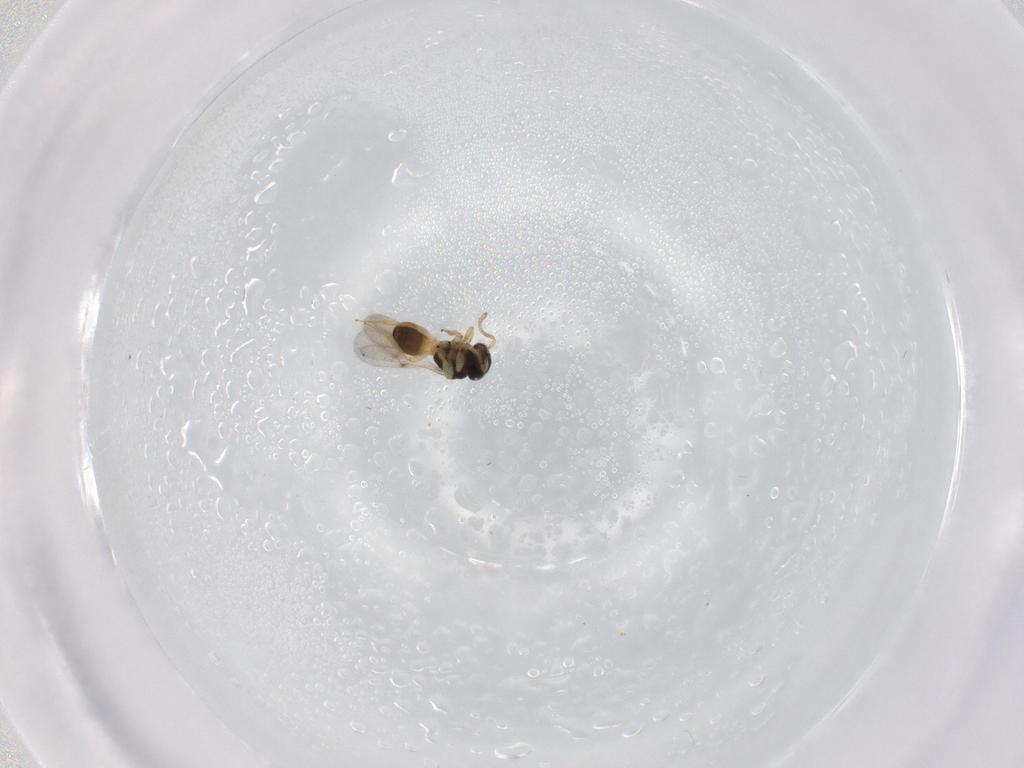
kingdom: Animalia
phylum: Arthropoda
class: Insecta
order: Hymenoptera
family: Scelionidae
